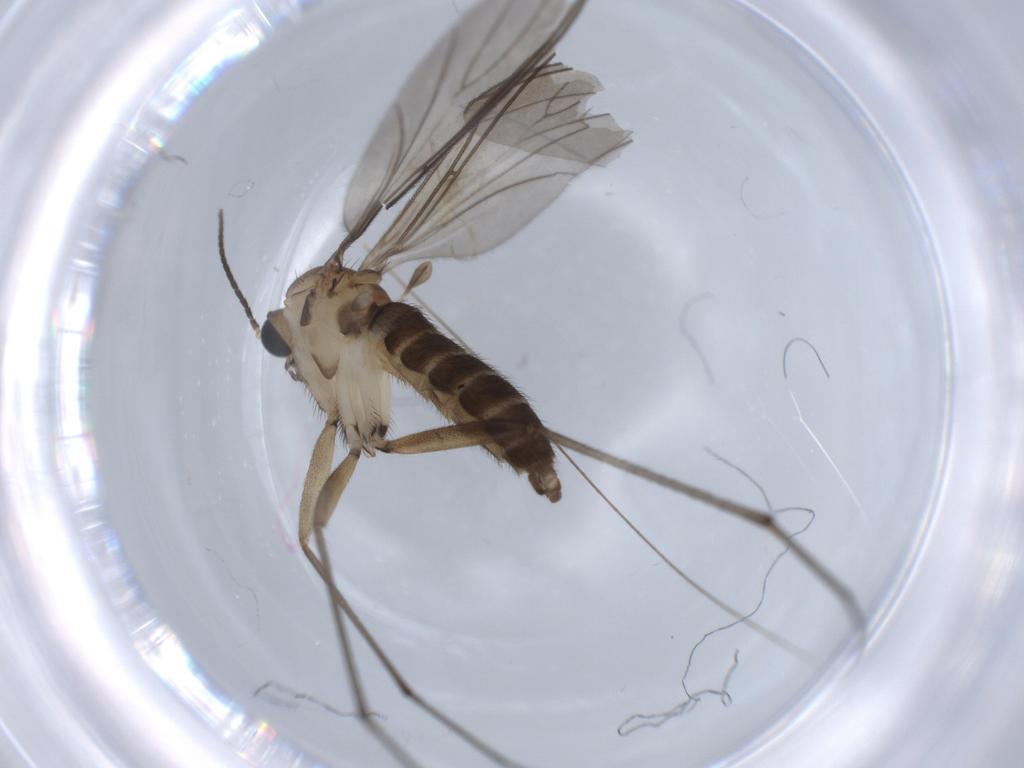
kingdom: Animalia
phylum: Arthropoda
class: Insecta
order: Diptera
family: Sciaridae
